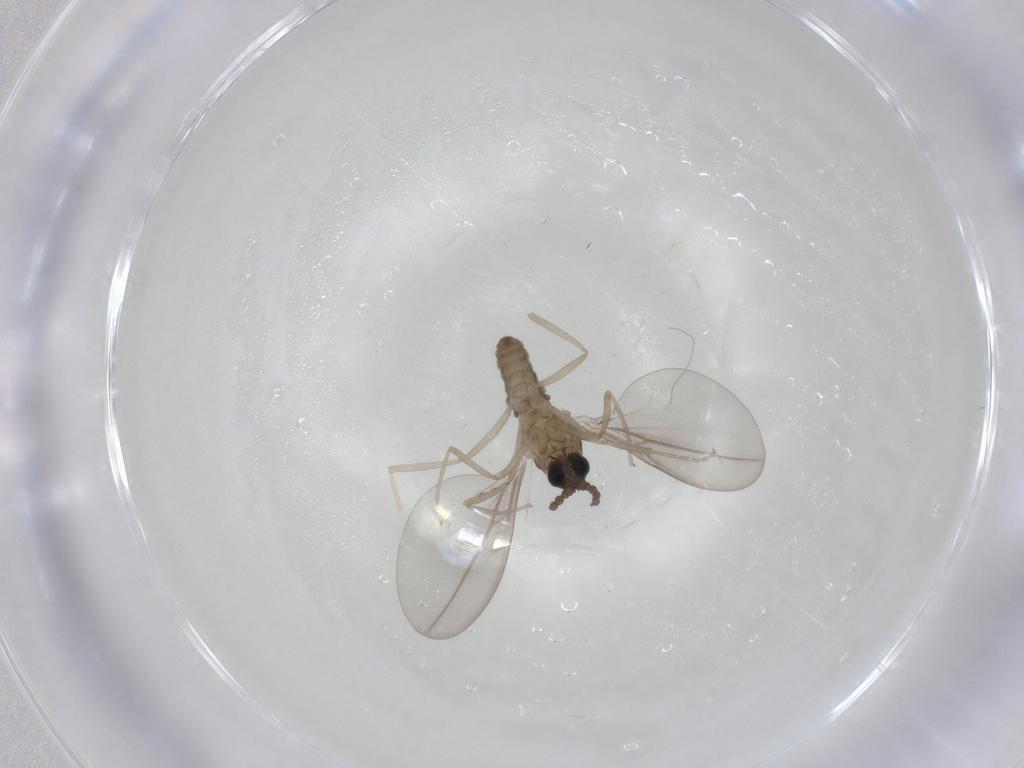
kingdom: Animalia
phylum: Arthropoda
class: Insecta
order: Diptera
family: Cecidomyiidae
